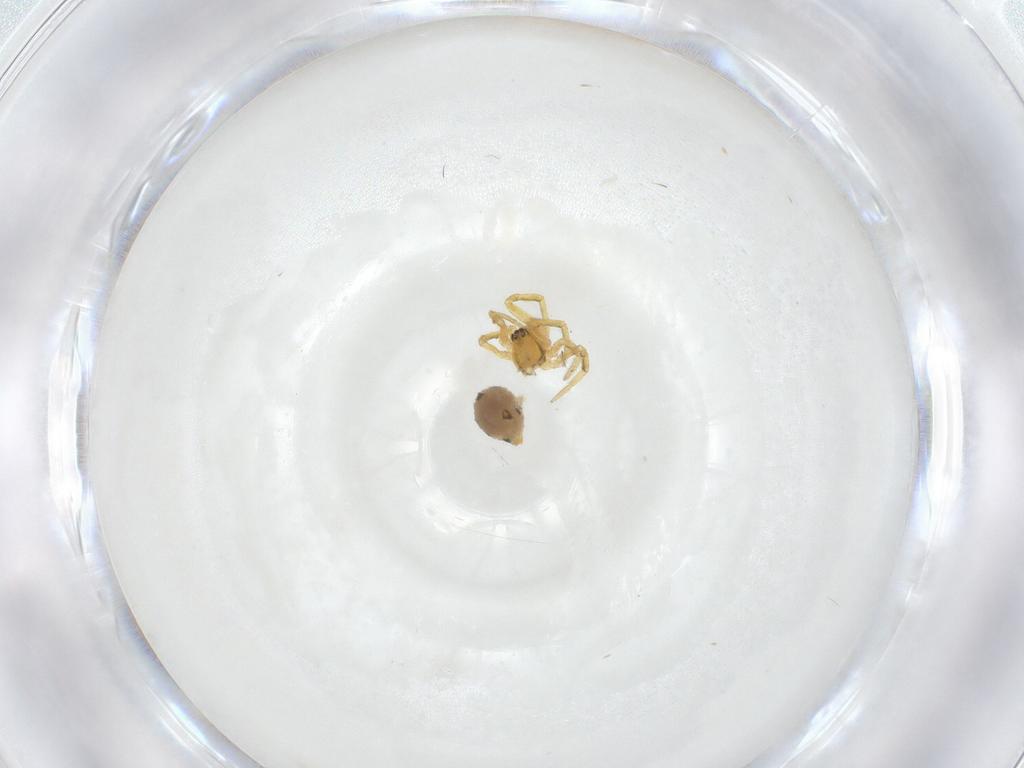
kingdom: Animalia
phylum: Arthropoda
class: Arachnida
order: Araneae
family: Theridiidae
